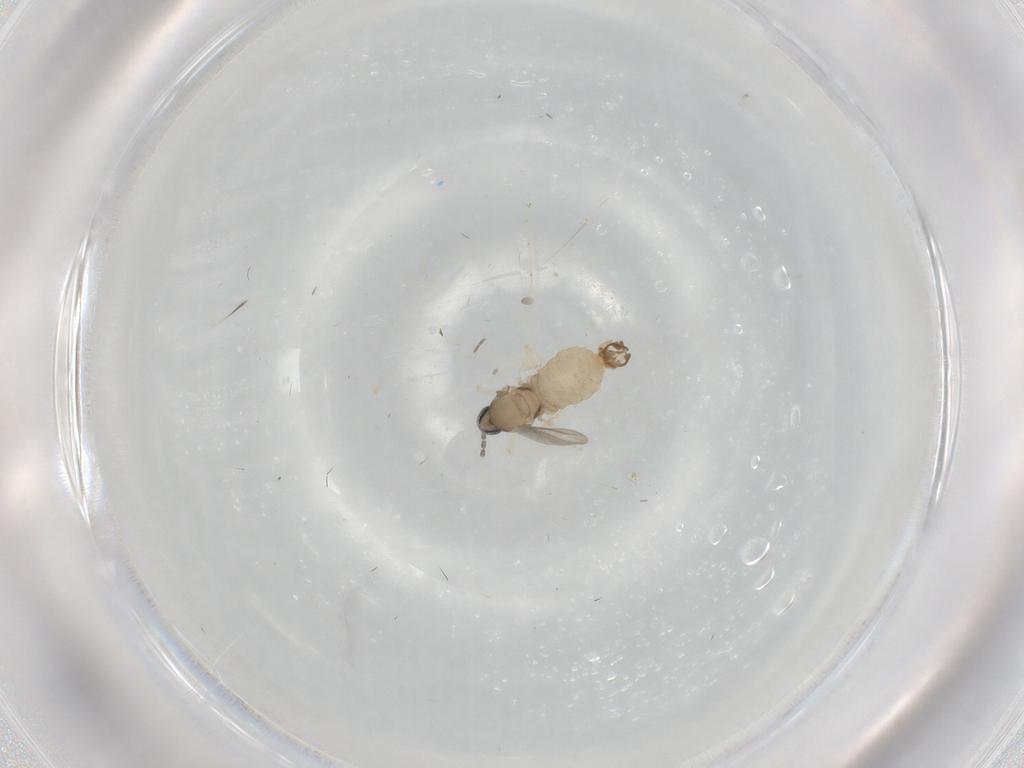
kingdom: Animalia
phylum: Arthropoda
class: Insecta
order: Diptera
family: Cecidomyiidae
